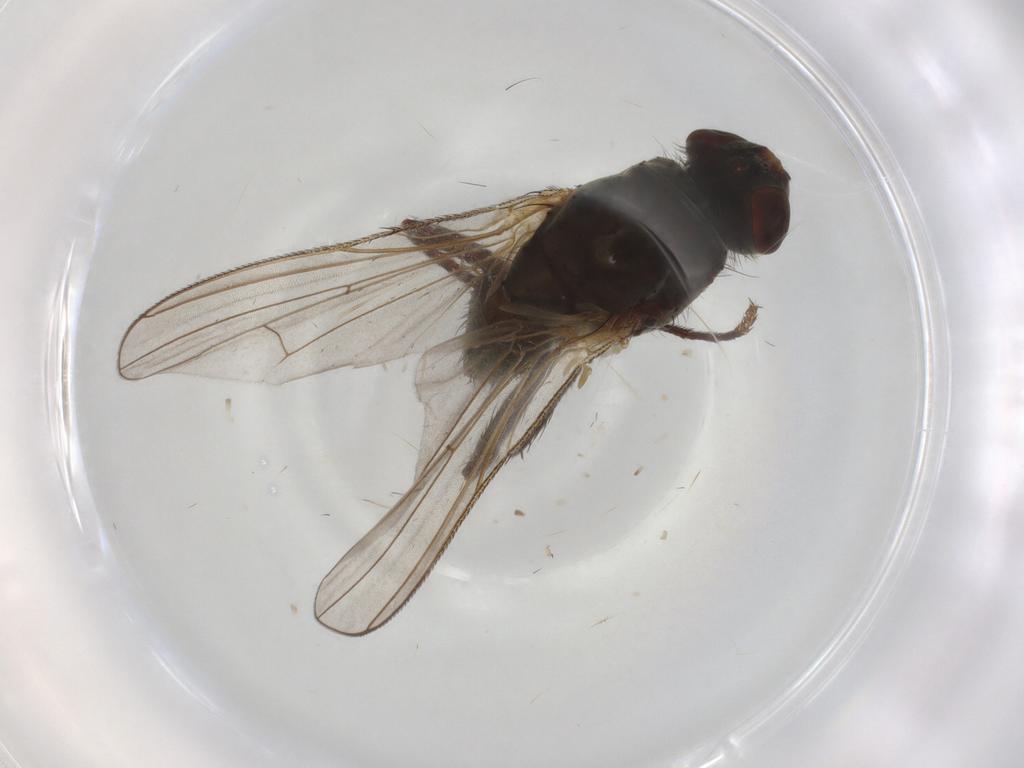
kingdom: Animalia
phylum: Arthropoda
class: Insecta
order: Diptera
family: Anthomyiidae
